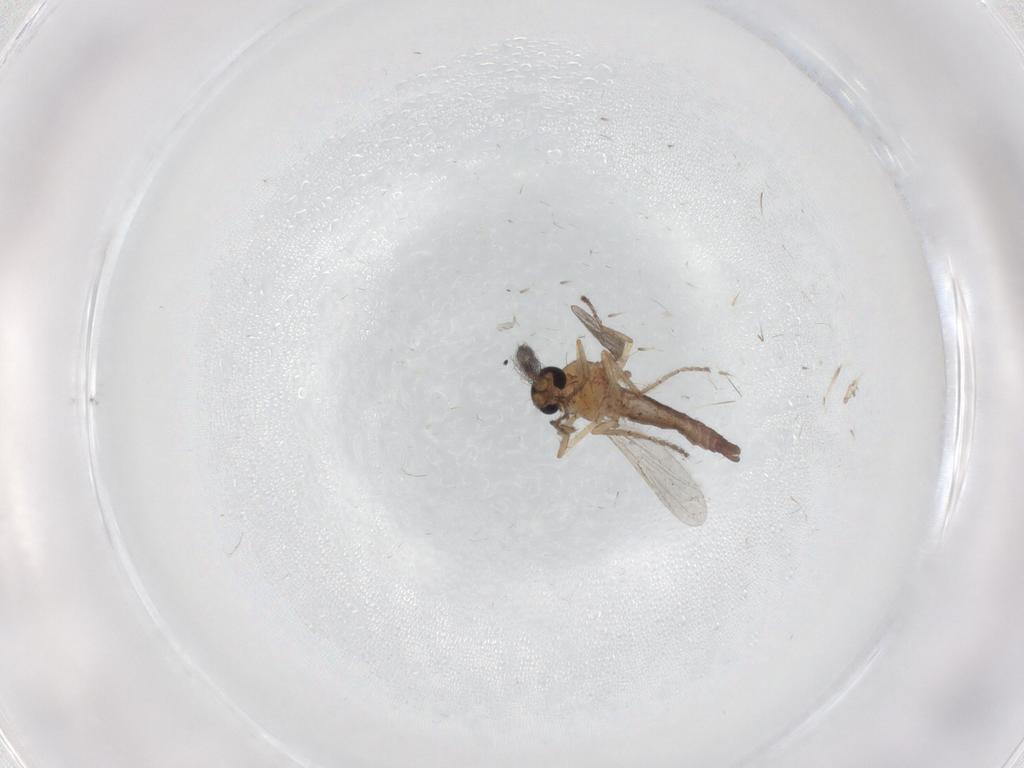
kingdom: Animalia
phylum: Arthropoda
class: Insecta
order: Diptera
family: Ceratopogonidae
